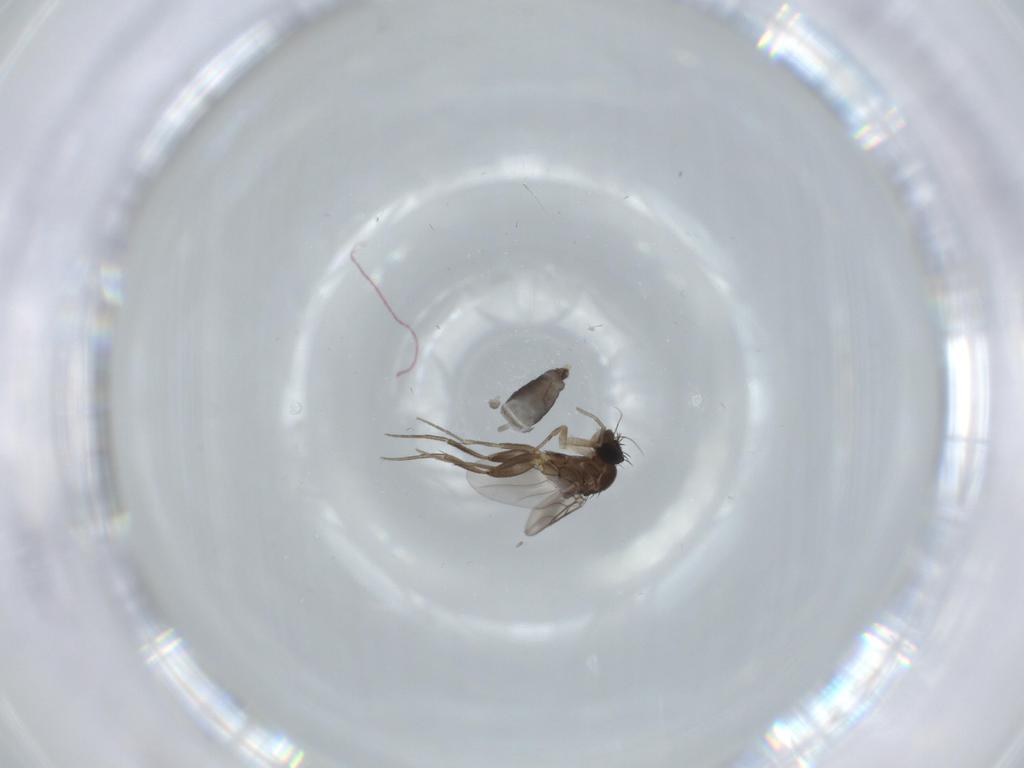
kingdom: Animalia
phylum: Arthropoda
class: Insecta
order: Diptera
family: Phoridae
